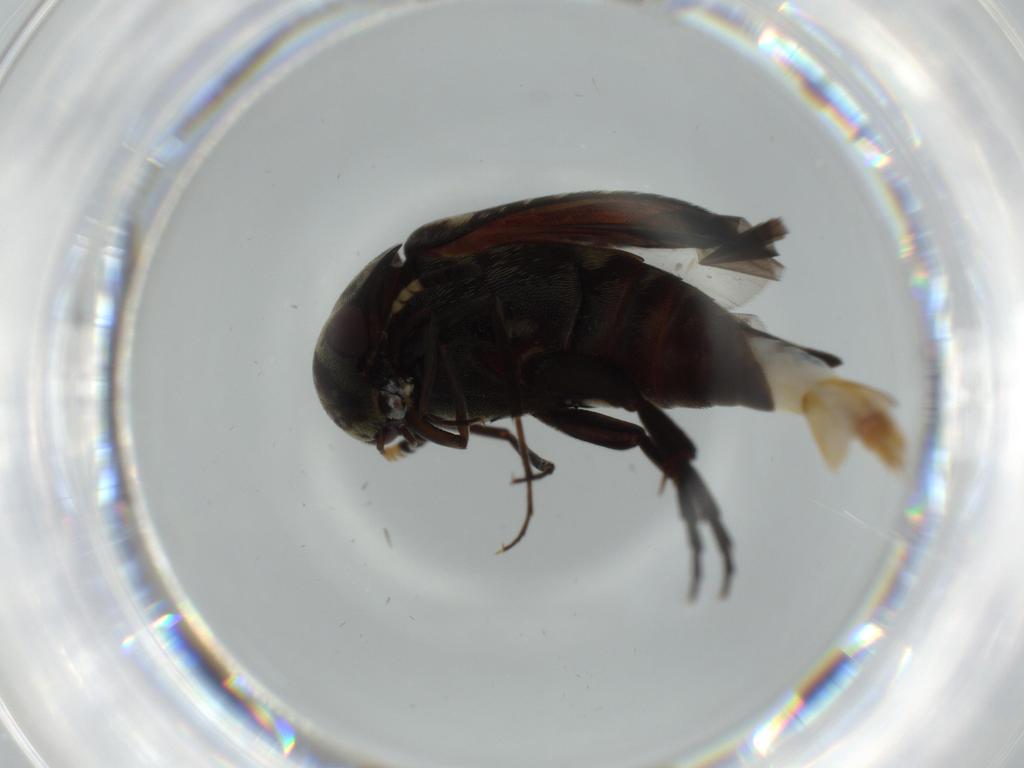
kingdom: Animalia
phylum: Arthropoda
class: Insecta
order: Coleoptera
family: Curculionidae
